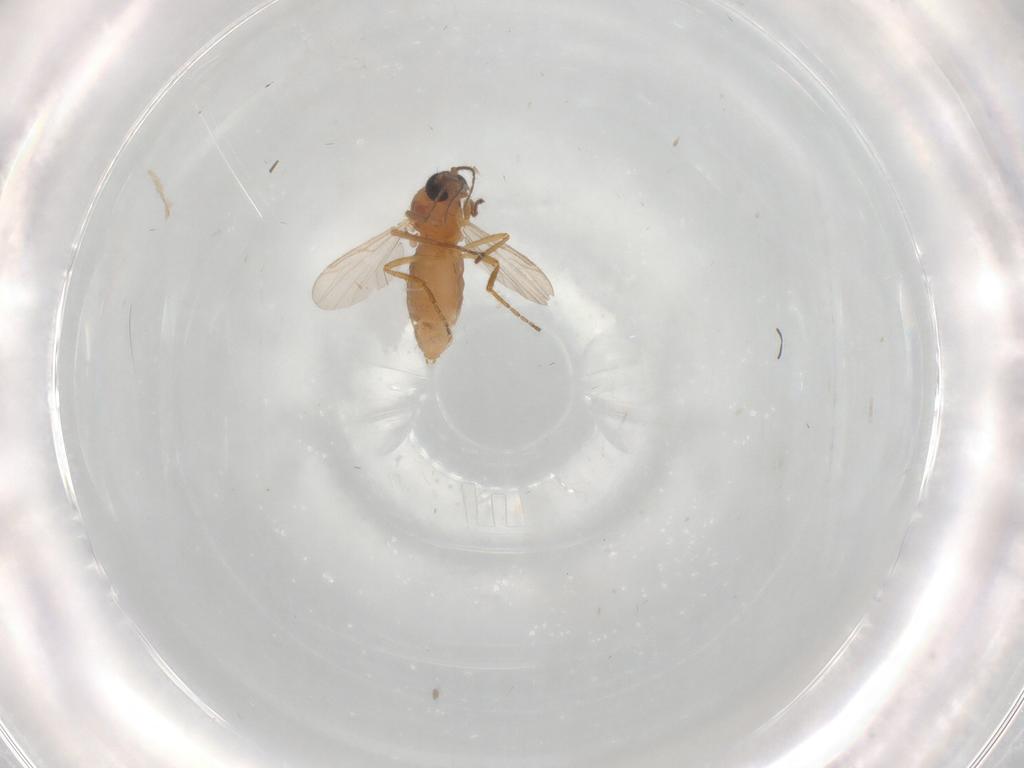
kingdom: Animalia
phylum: Arthropoda
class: Insecta
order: Diptera
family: Ceratopogonidae
